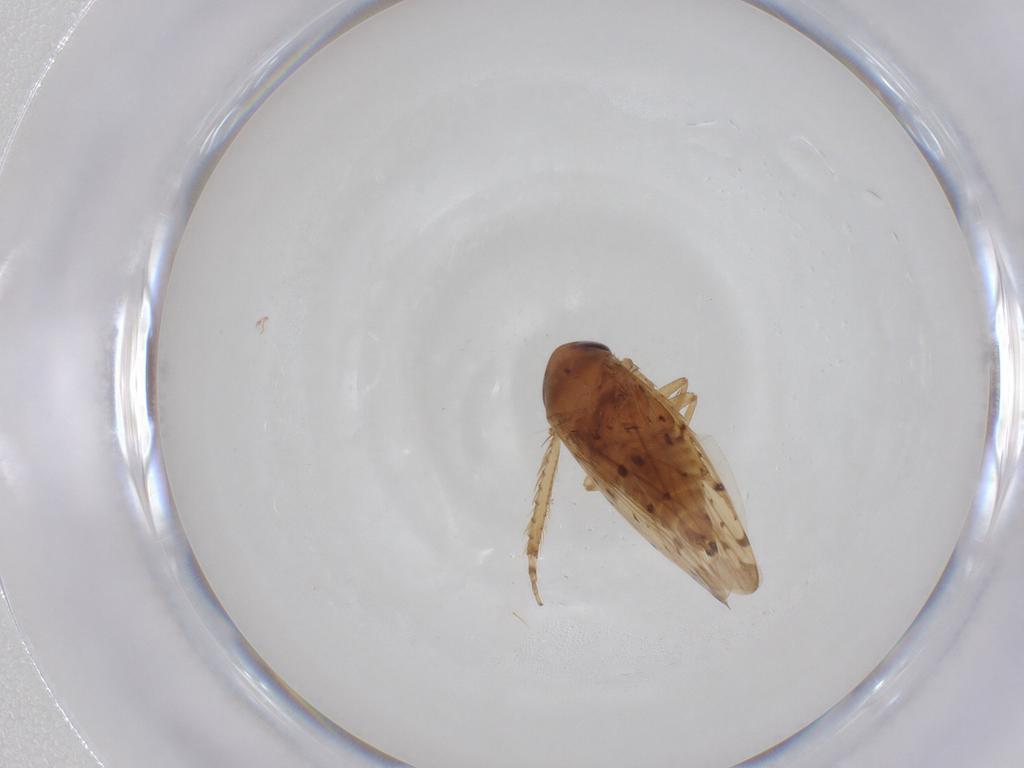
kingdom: Animalia
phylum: Arthropoda
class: Insecta
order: Hemiptera
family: Cicadellidae
